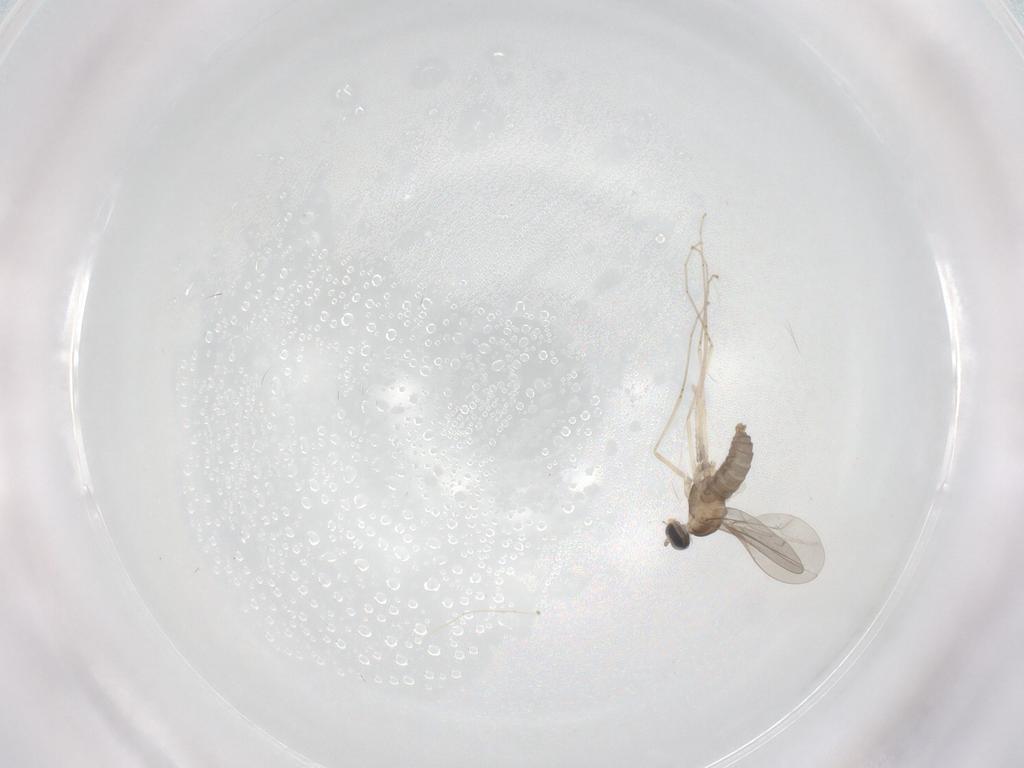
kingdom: Animalia
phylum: Arthropoda
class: Insecta
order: Diptera
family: Cecidomyiidae
